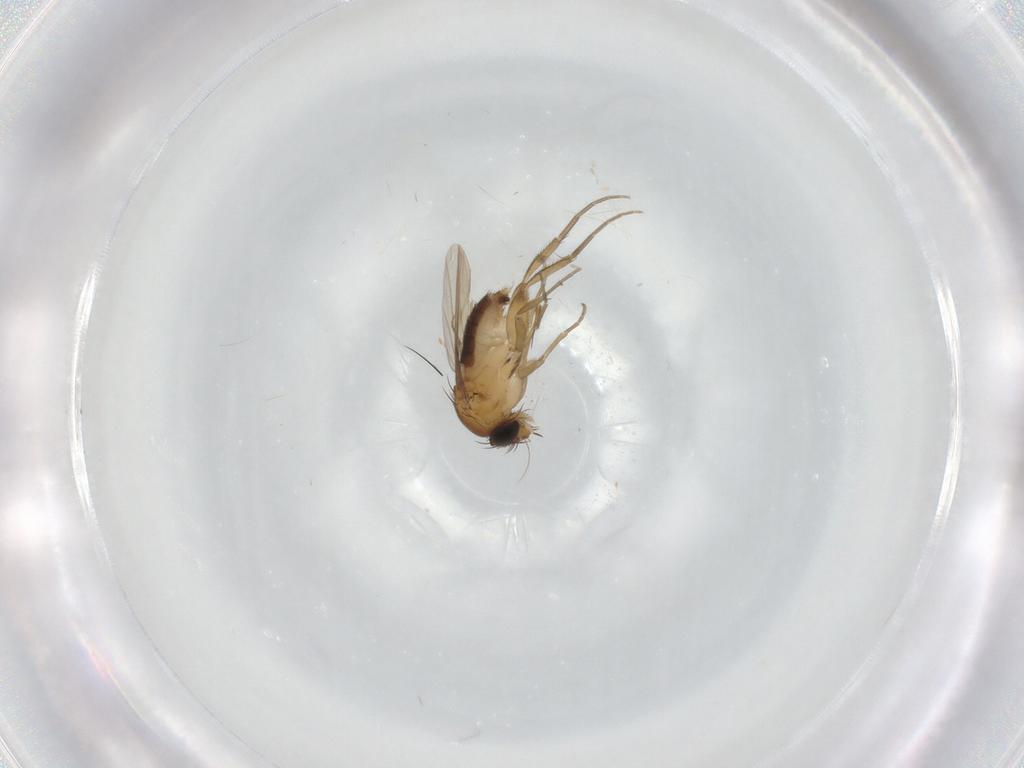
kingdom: Animalia
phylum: Arthropoda
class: Insecta
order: Diptera
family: Phoridae
